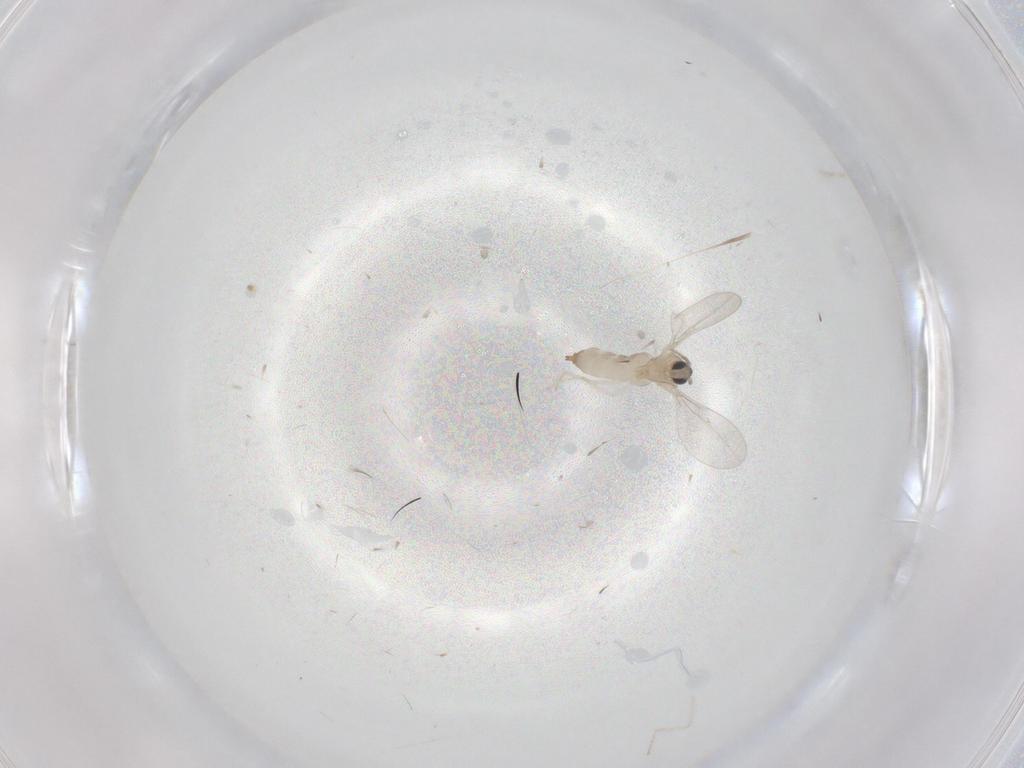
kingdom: Animalia
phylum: Arthropoda
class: Insecta
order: Diptera
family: Cecidomyiidae
